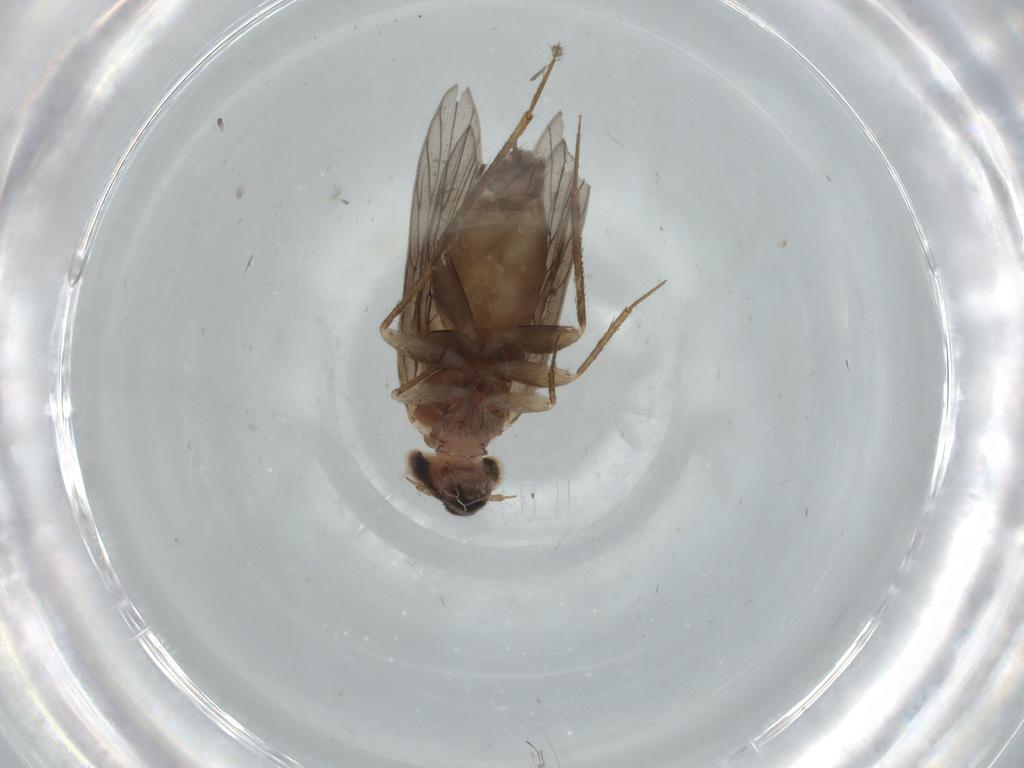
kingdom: Animalia
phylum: Arthropoda
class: Insecta
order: Psocodea
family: Lepidopsocidae
